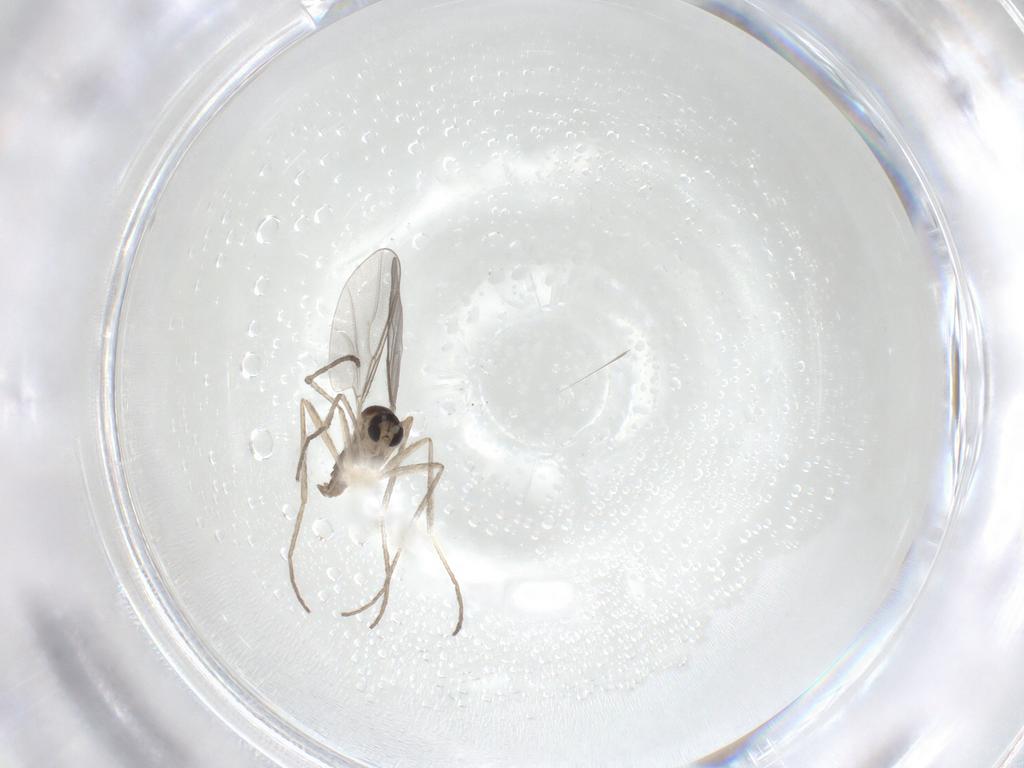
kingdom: Animalia
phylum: Arthropoda
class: Insecta
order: Diptera
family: Cecidomyiidae
